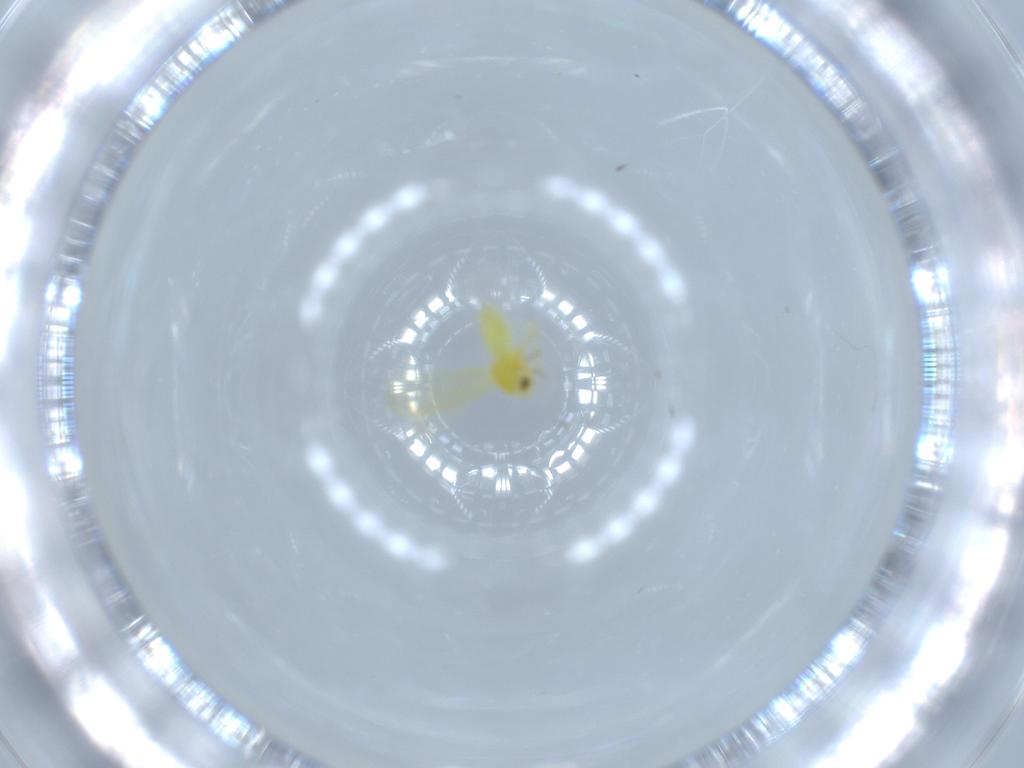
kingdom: Animalia
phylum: Arthropoda
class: Insecta
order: Hemiptera
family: Aleyrodidae
